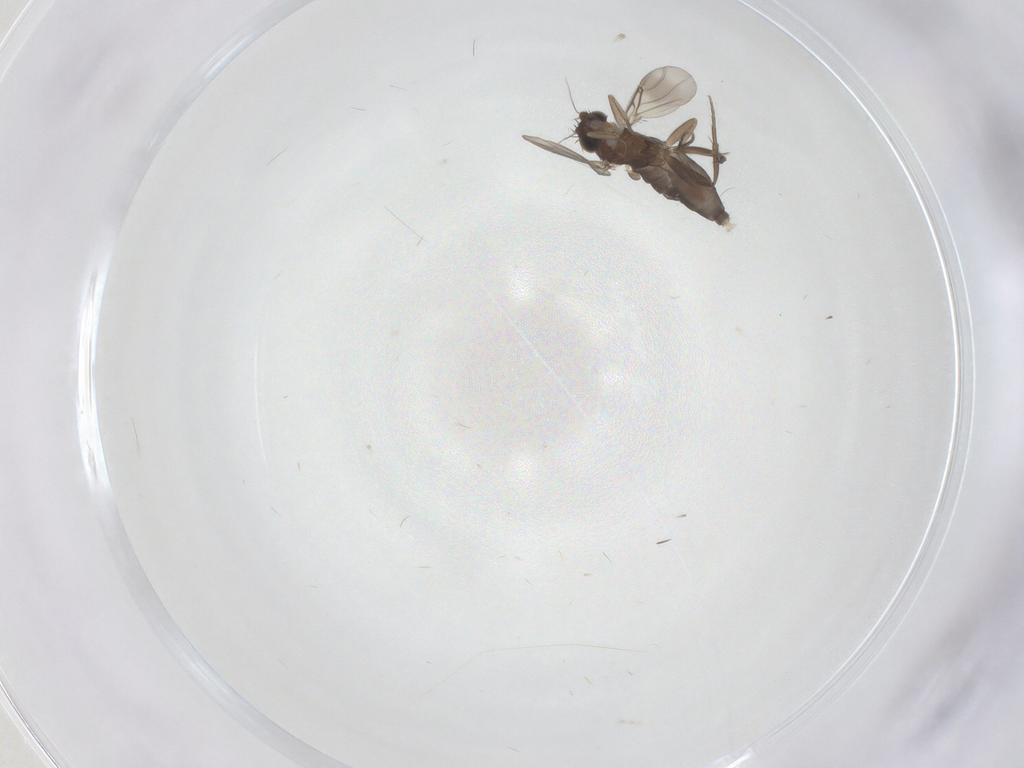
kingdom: Animalia
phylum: Arthropoda
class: Insecta
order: Diptera
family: Phoridae
